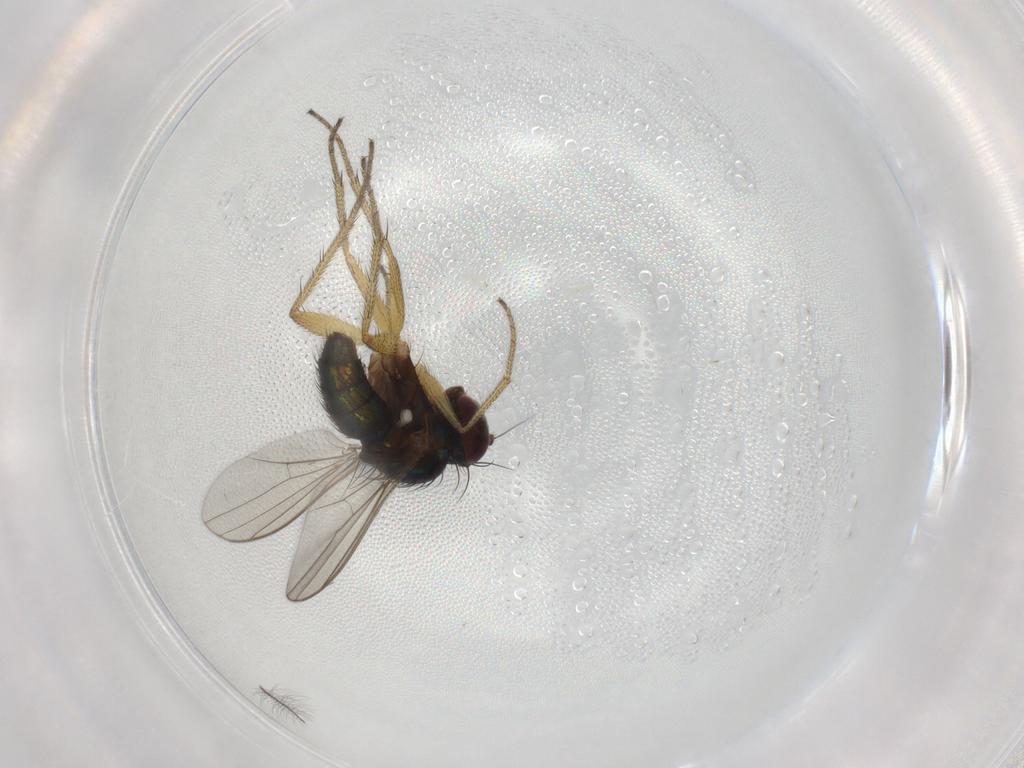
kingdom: Animalia
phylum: Arthropoda
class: Insecta
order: Diptera
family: Dolichopodidae
